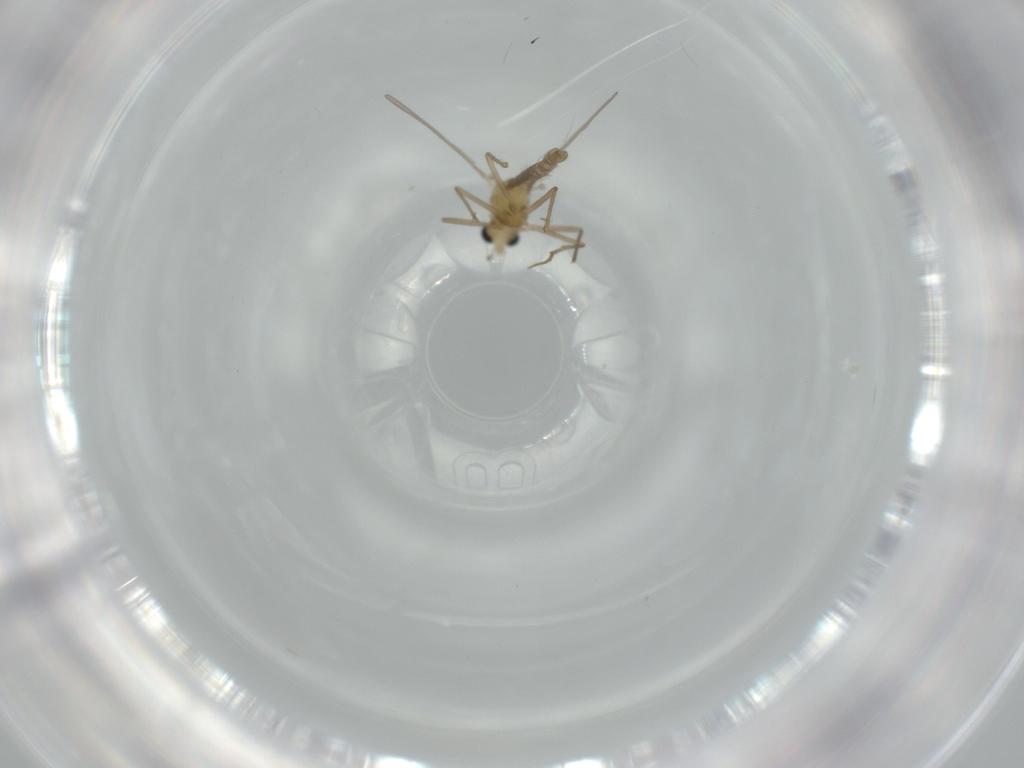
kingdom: Animalia
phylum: Arthropoda
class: Insecta
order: Diptera
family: Chironomidae
